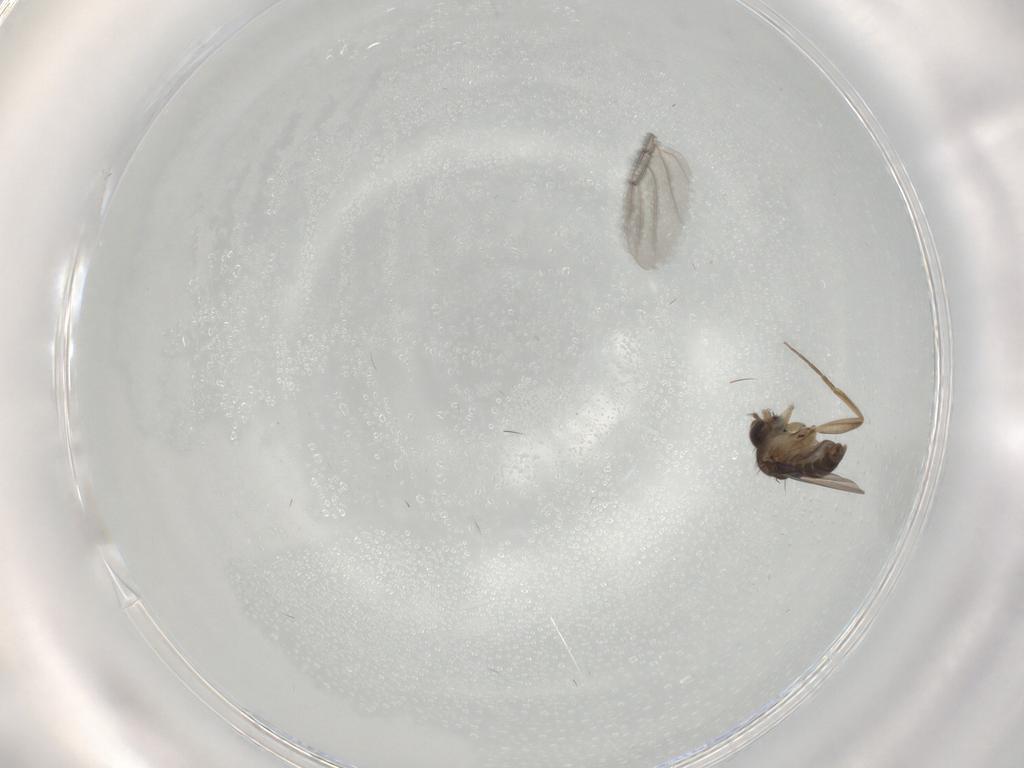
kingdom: Animalia
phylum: Arthropoda
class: Insecta
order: Diptera
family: Phoridae
